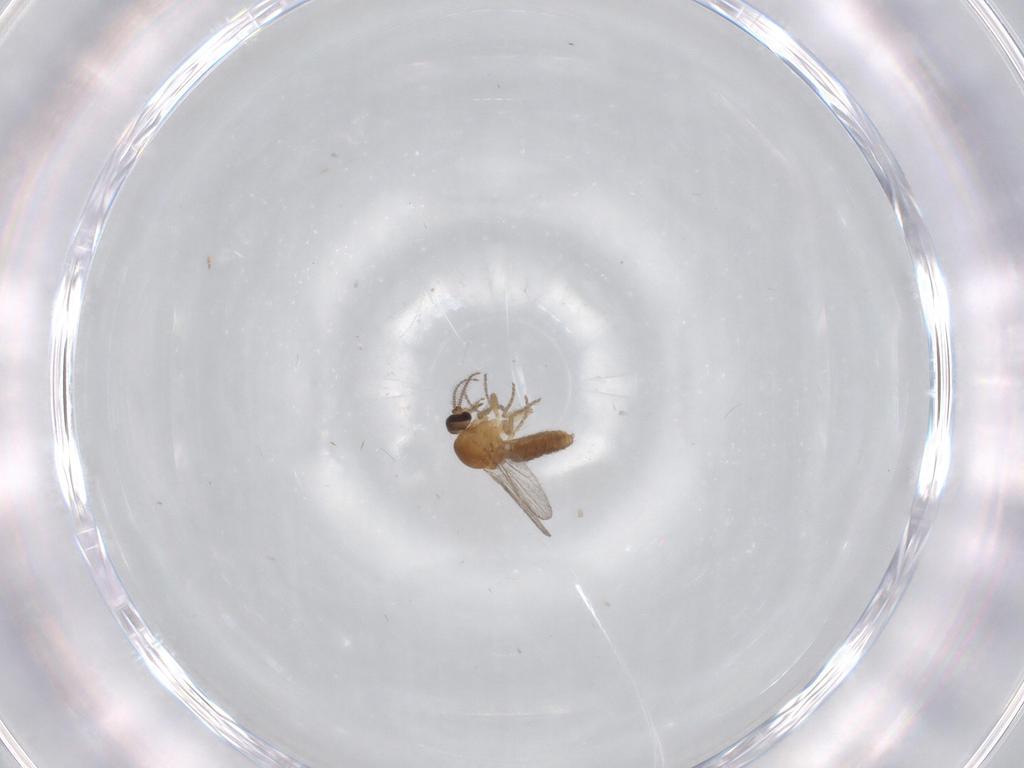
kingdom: Animalia
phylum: Arthropoda
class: Insecta
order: Diptera
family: Ceratopogonidae
